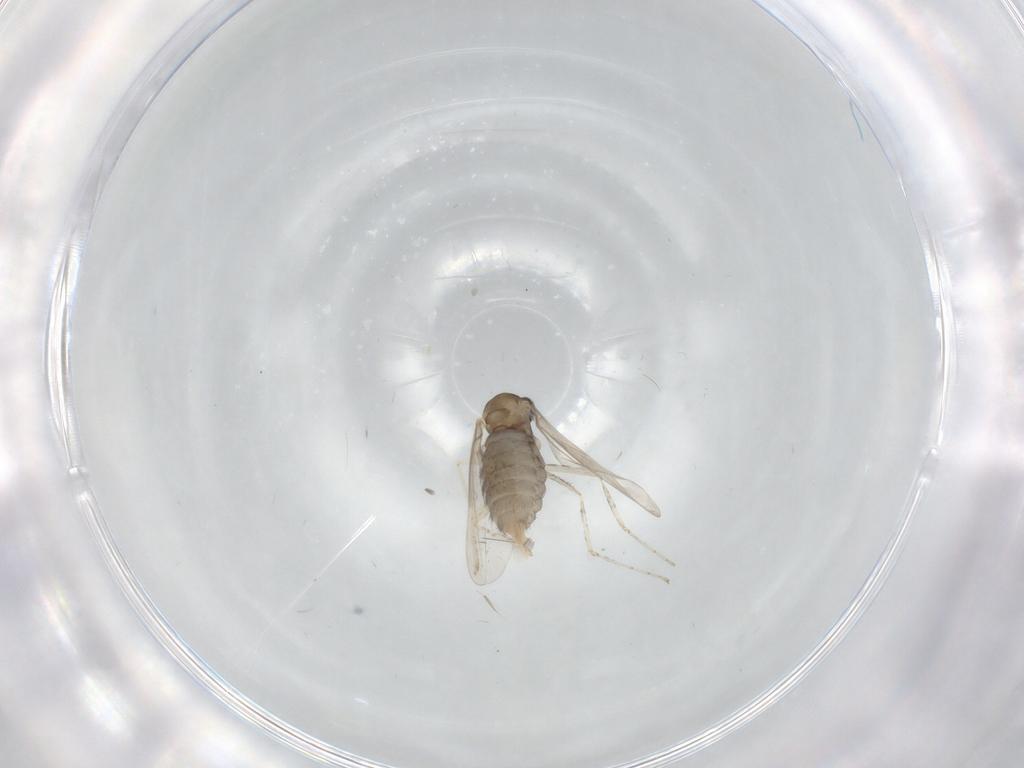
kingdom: Animalia
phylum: Arthropoda
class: Insecta
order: Diptera
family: Cecidomyiidae
